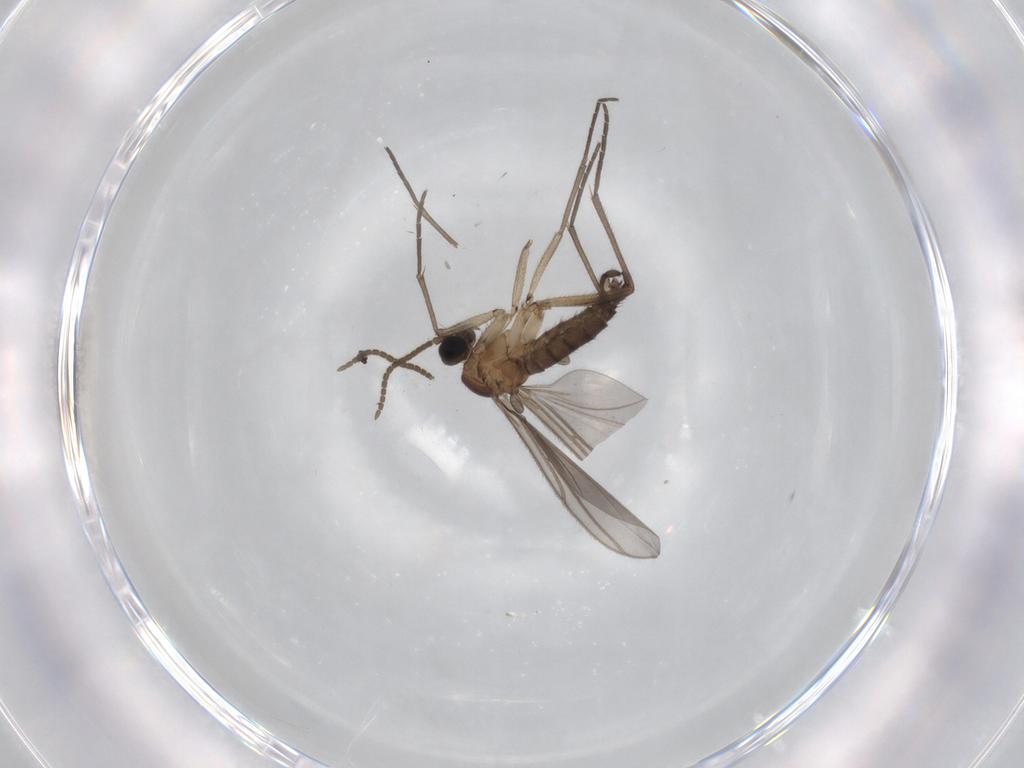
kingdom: Animalia
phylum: Arthropoda
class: Insecta
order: Diptera
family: Sciaridae
